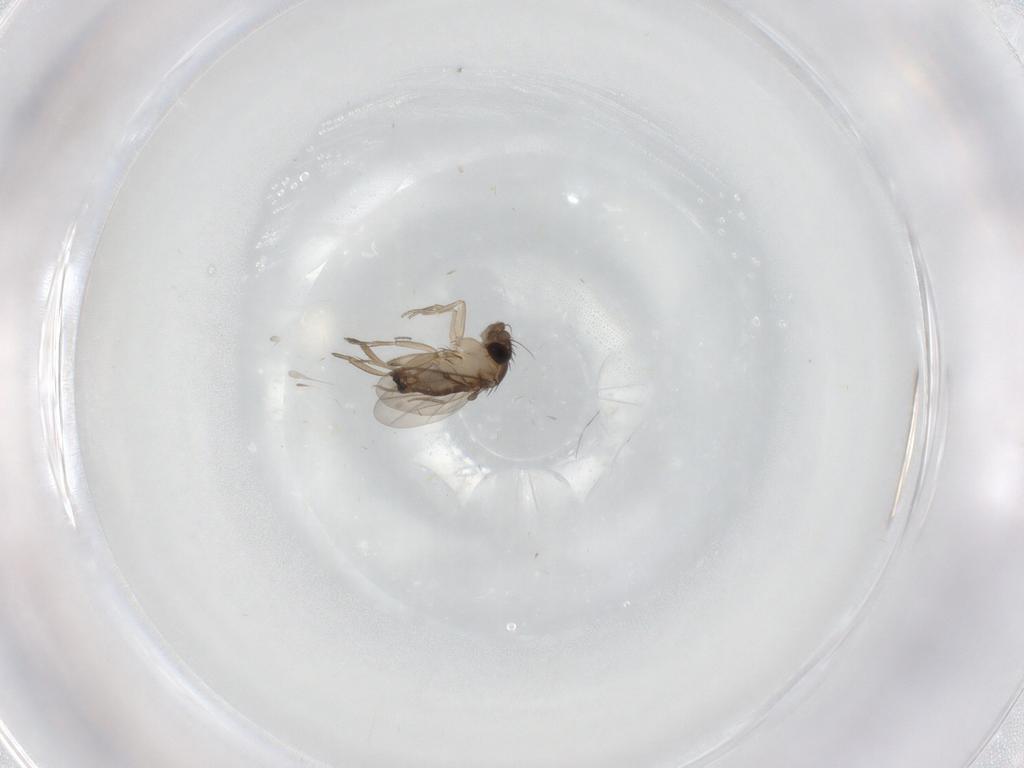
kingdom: Animalia
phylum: Arthropoda
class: Insecta
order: Diptera
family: Phoridae
